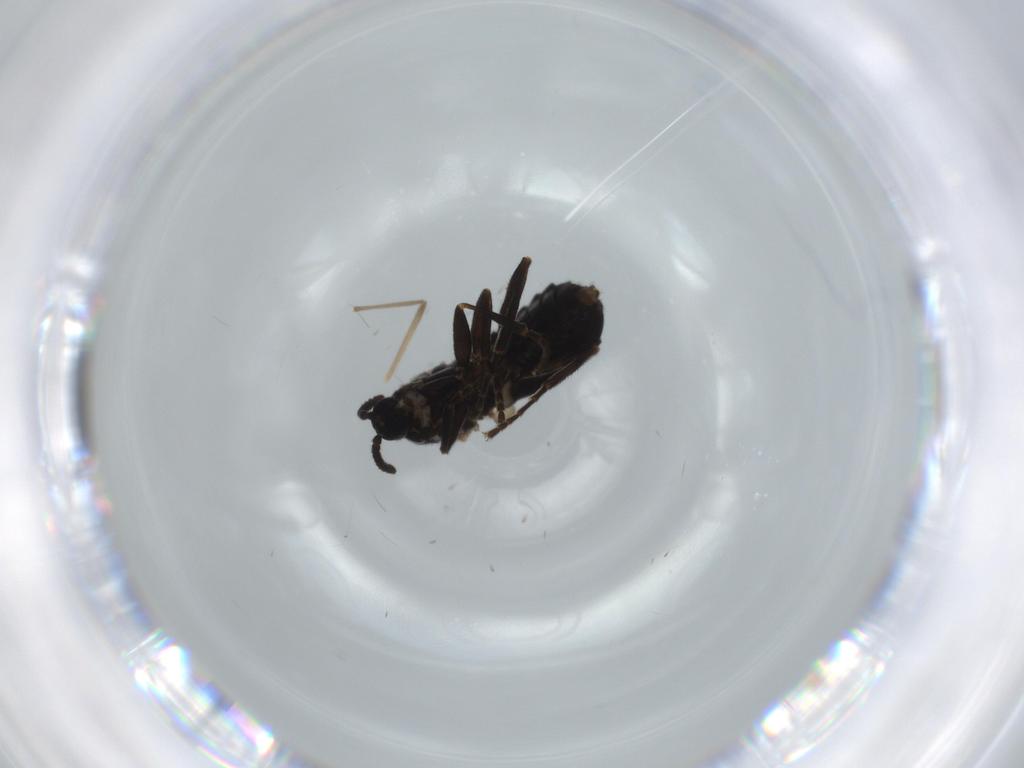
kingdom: Animalia
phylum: Arthropoda
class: Insecta
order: Diptera
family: Scatopsidae
